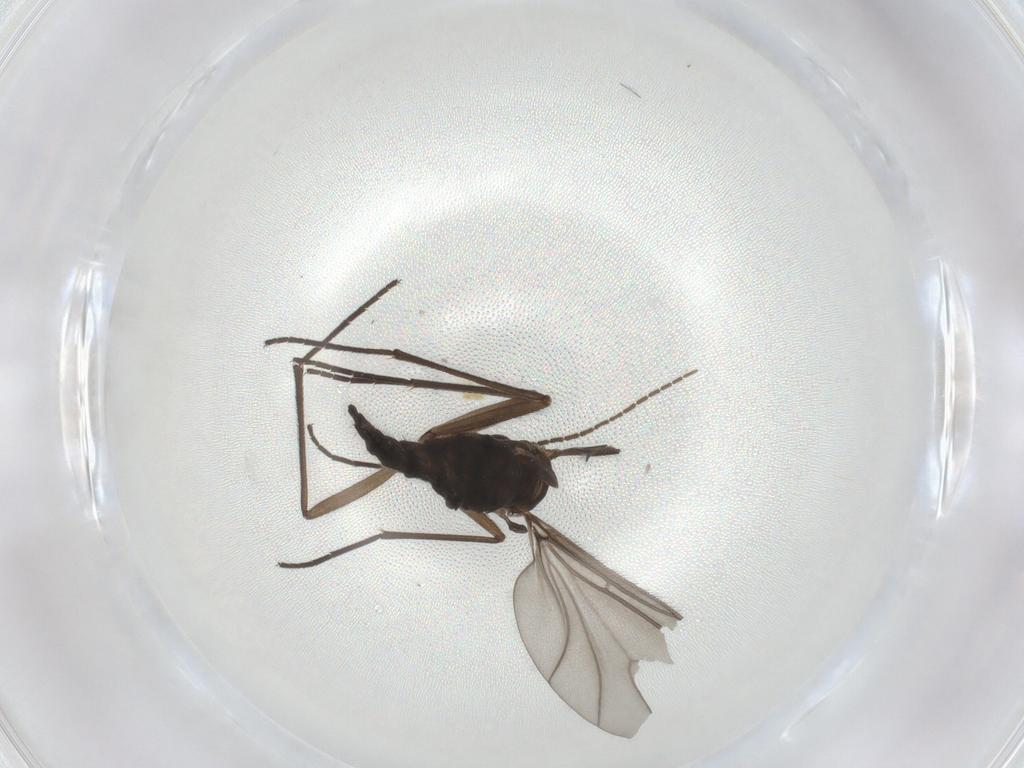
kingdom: Animalia
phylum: Arthropoda
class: Insecta
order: Diptera
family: Sciaridae
